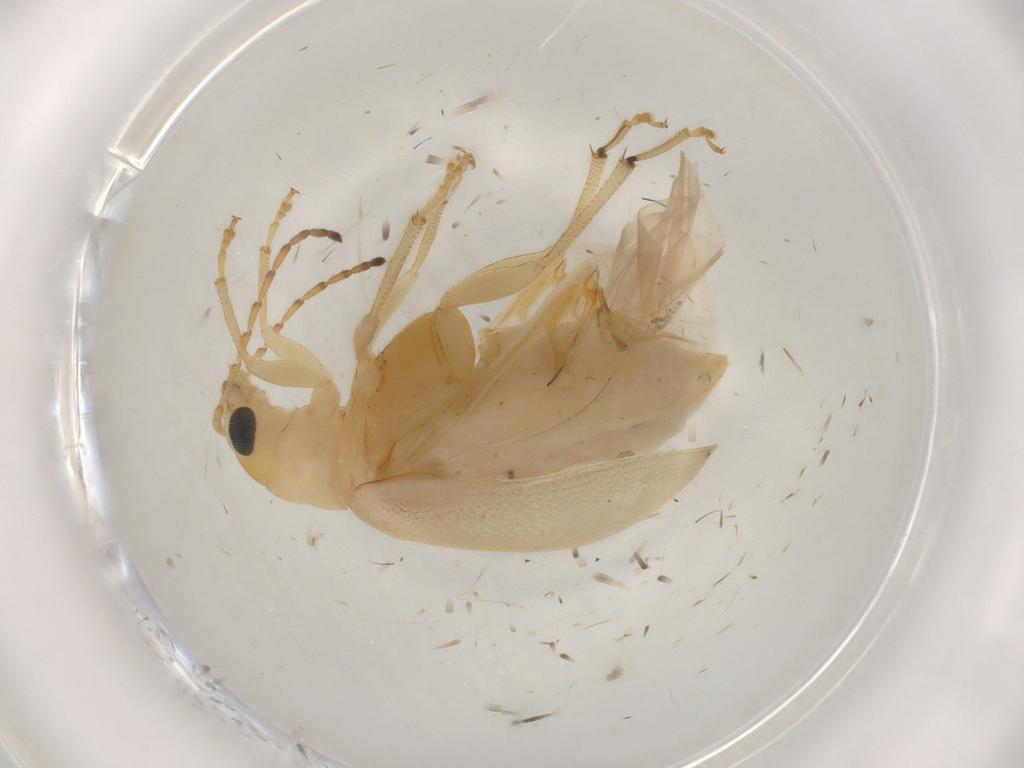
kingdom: Animalia
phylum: Arthropoda
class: Insecta
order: Coleoptera
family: Chrysomelidae
